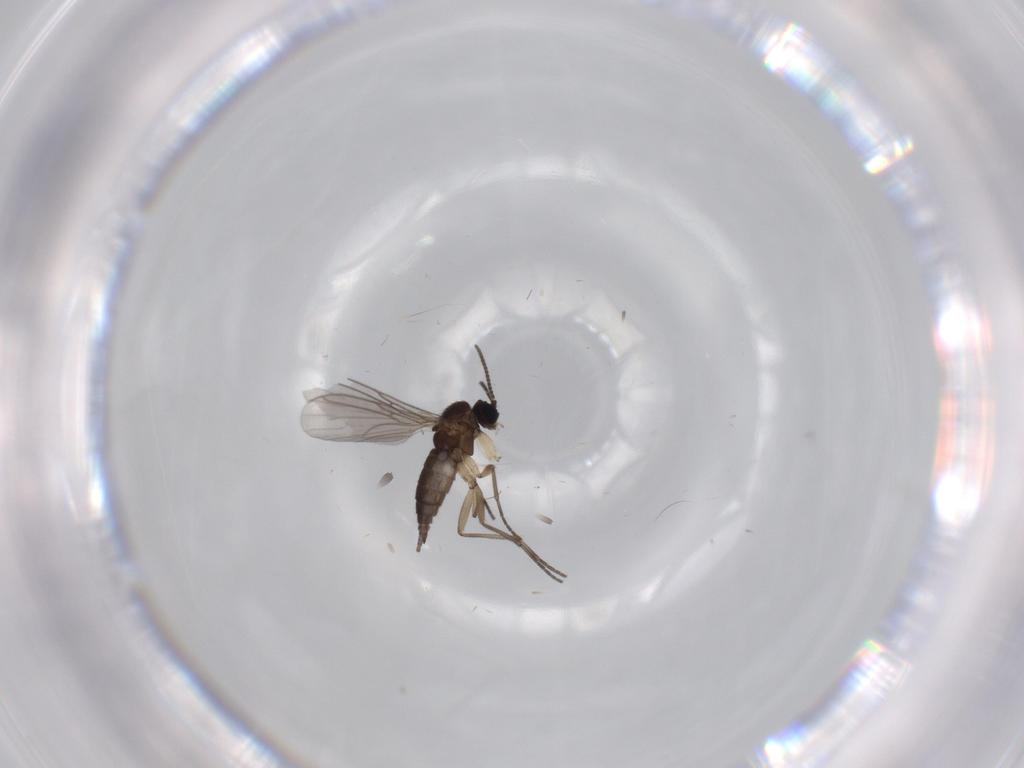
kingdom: Animalia
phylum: Arthropoda
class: Insecta
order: Diptera
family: Sciaridae
